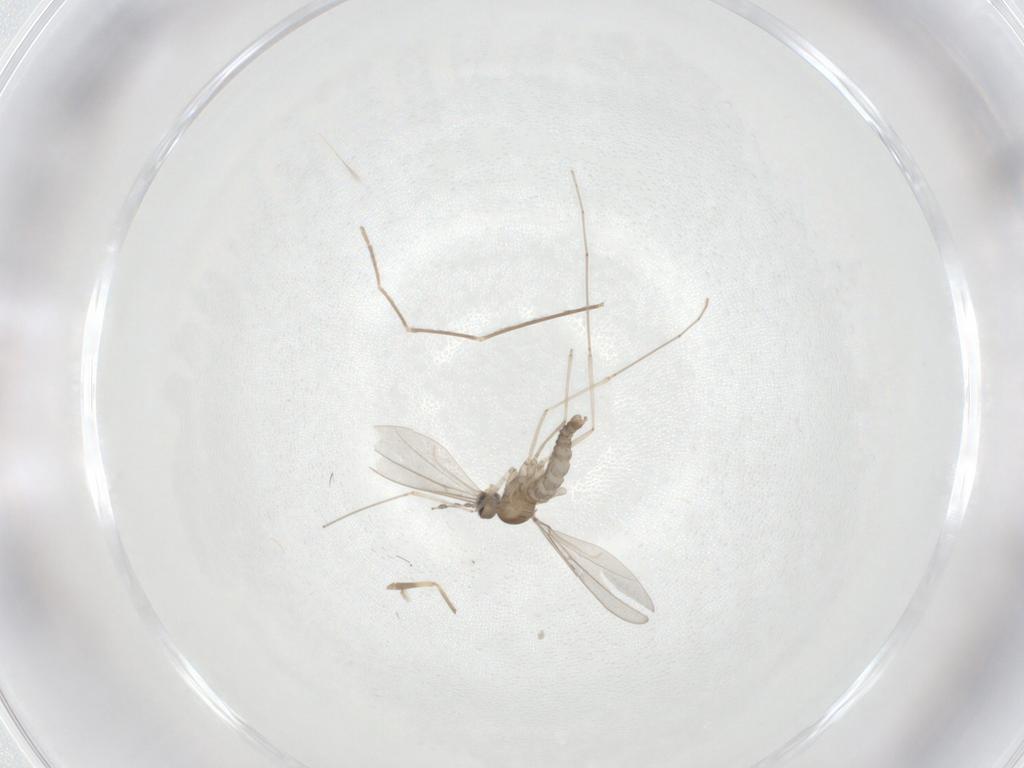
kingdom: Animalia
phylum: Arthropoda
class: Insecta
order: Diptera
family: Cecidomyiidae
